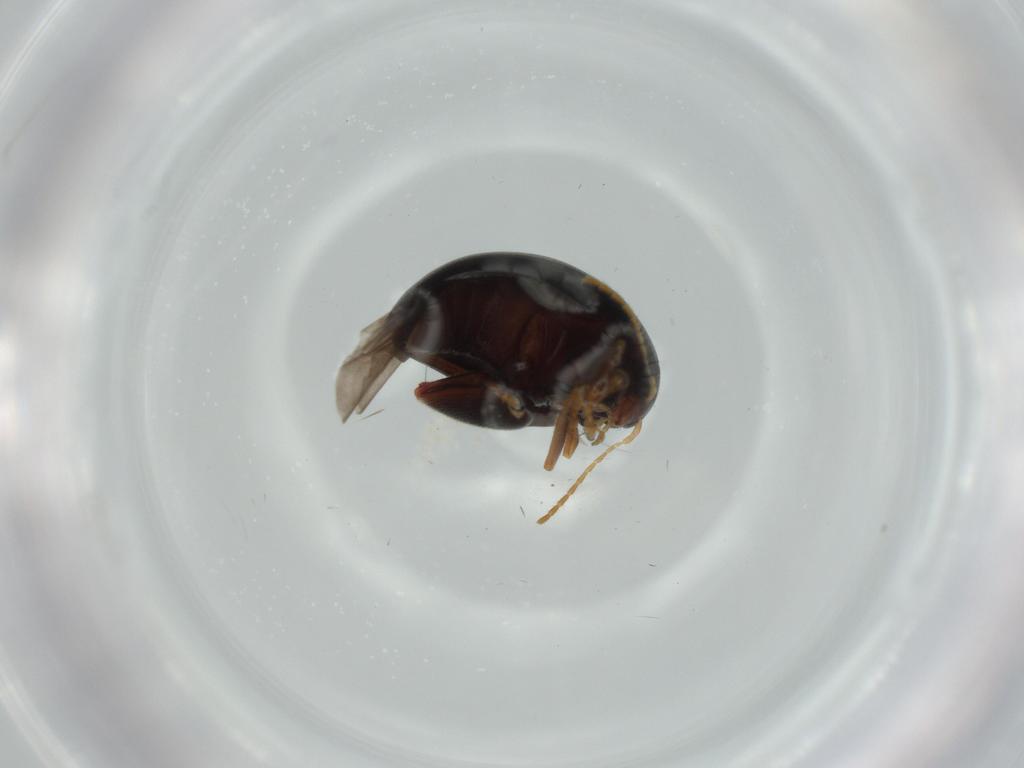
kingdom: Animalia
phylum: Arthropoda
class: Insecta
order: Coleoptera
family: Chrysomelidae
